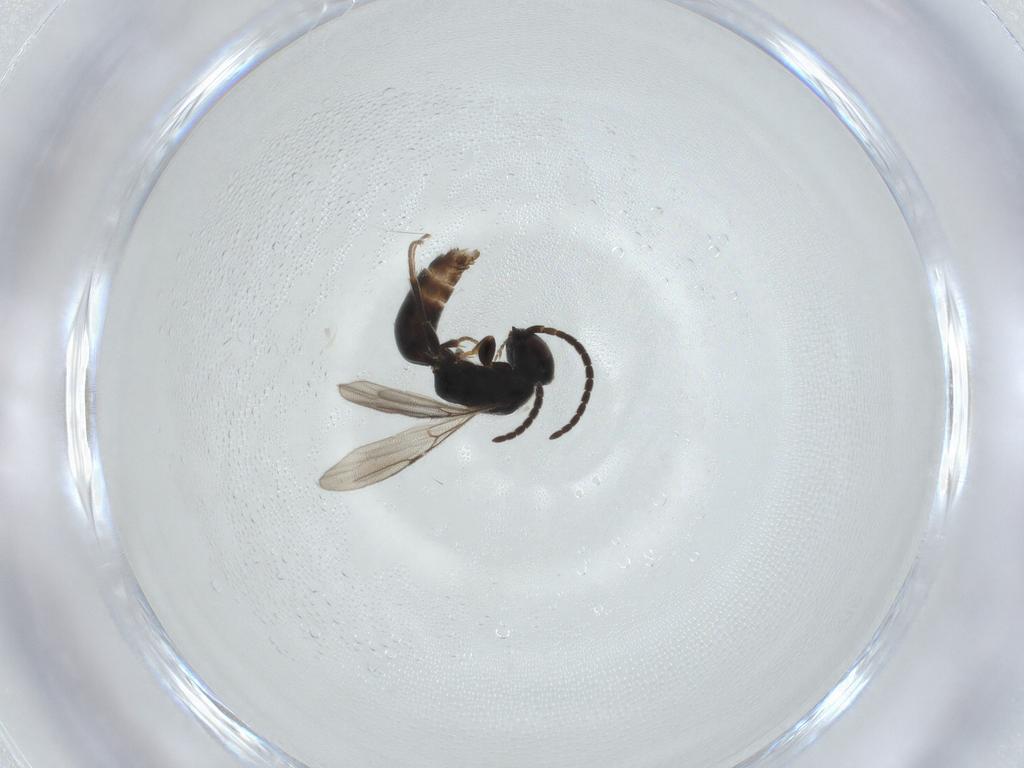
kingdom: Animalia
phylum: Arthropoda
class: Insecta
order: Hymenoptera
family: Bethylidae
